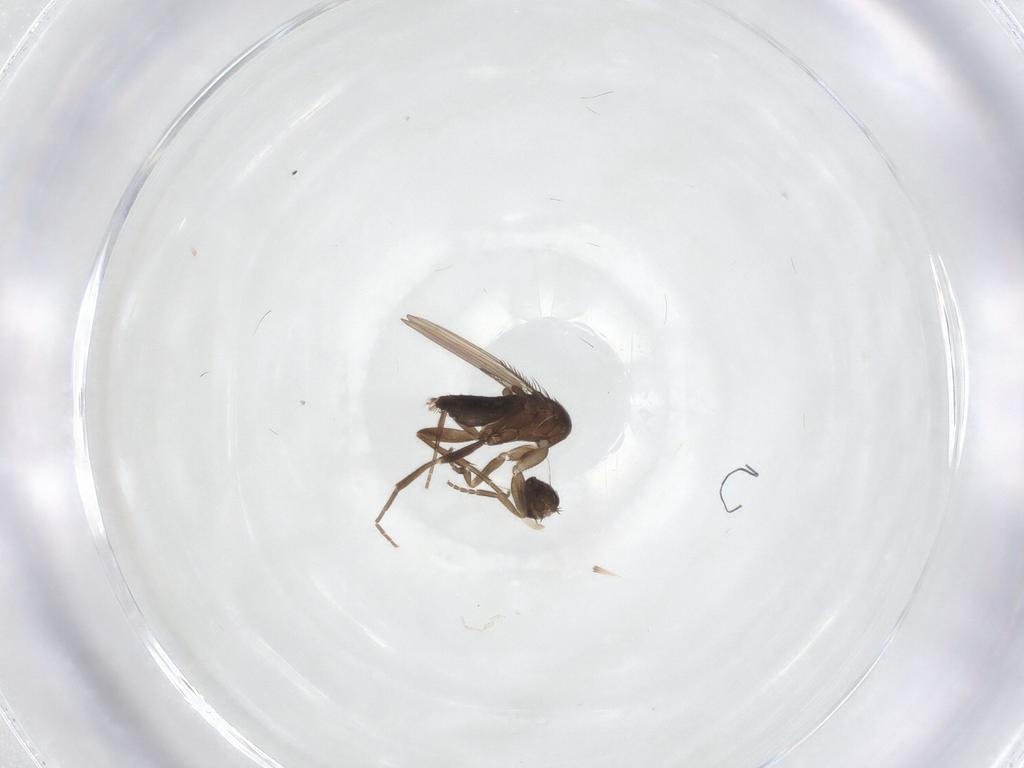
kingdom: Animalia
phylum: Arthropoda
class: Insecta
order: Diptera
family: Phoridae
